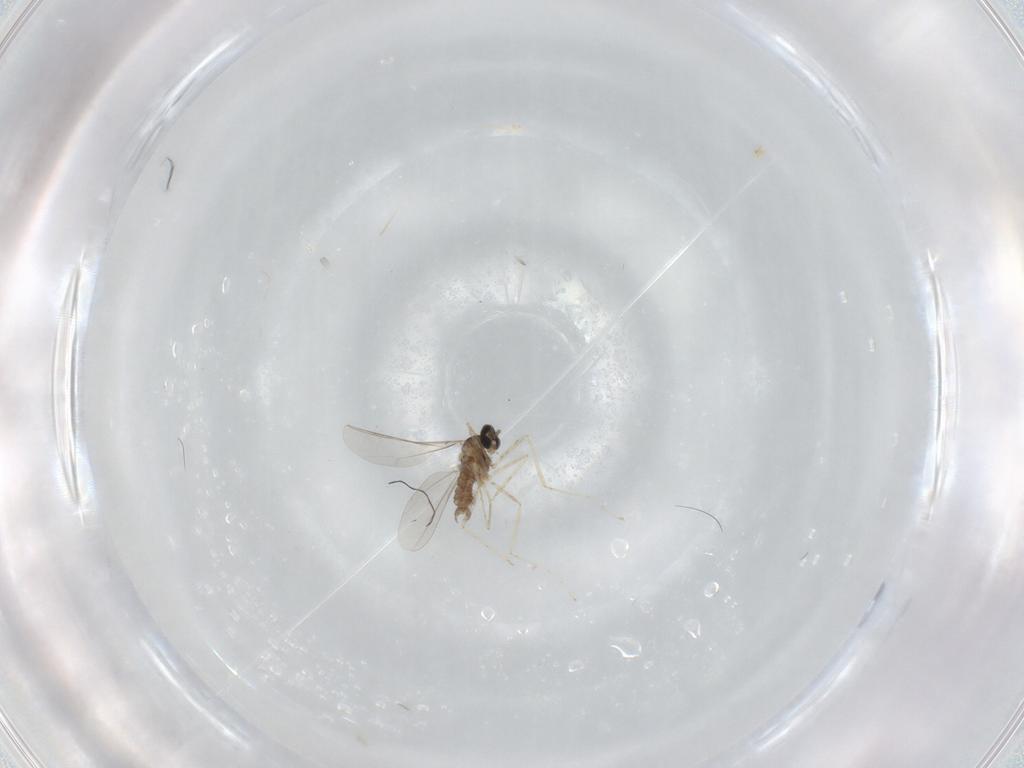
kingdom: Animalia
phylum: Arthropoda
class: Insecta
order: Diptera
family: Cecidomyiidae
